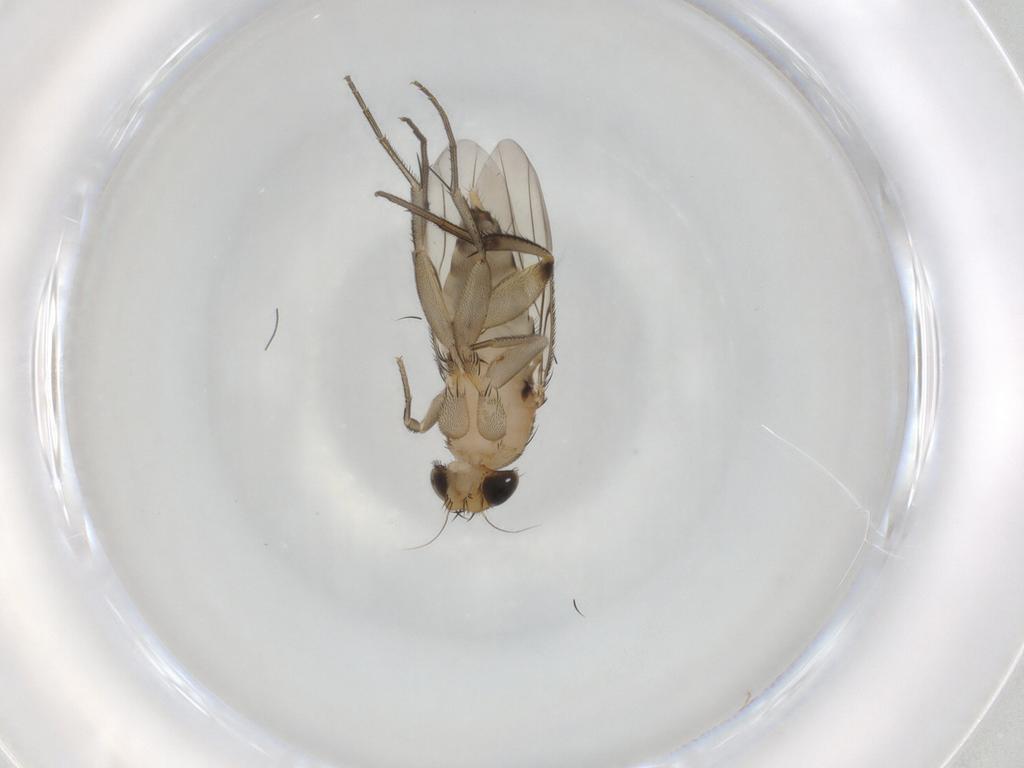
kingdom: Animalia
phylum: Arthropoda
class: Insecta
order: Diptera
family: Phoridae
